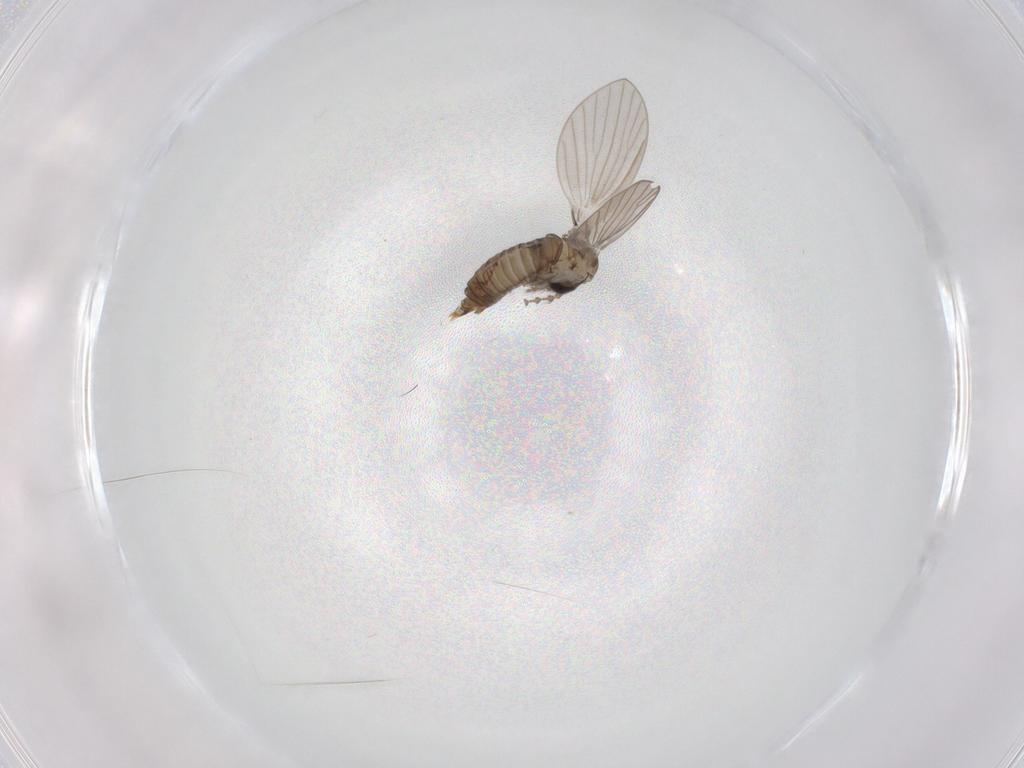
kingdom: Animalia
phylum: Arthropoda
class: Insecta
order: Diptera
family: Psychodidae
